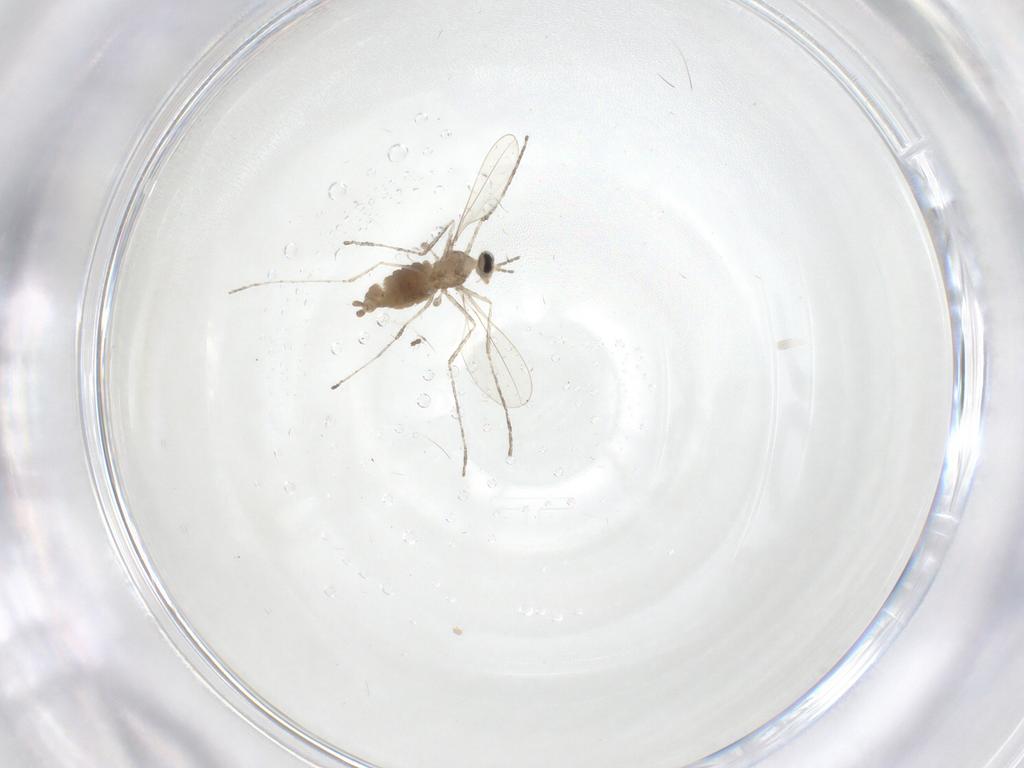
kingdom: Animalia
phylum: Arthropoda
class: Insecta
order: Diptera
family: Cecidomyiidae
